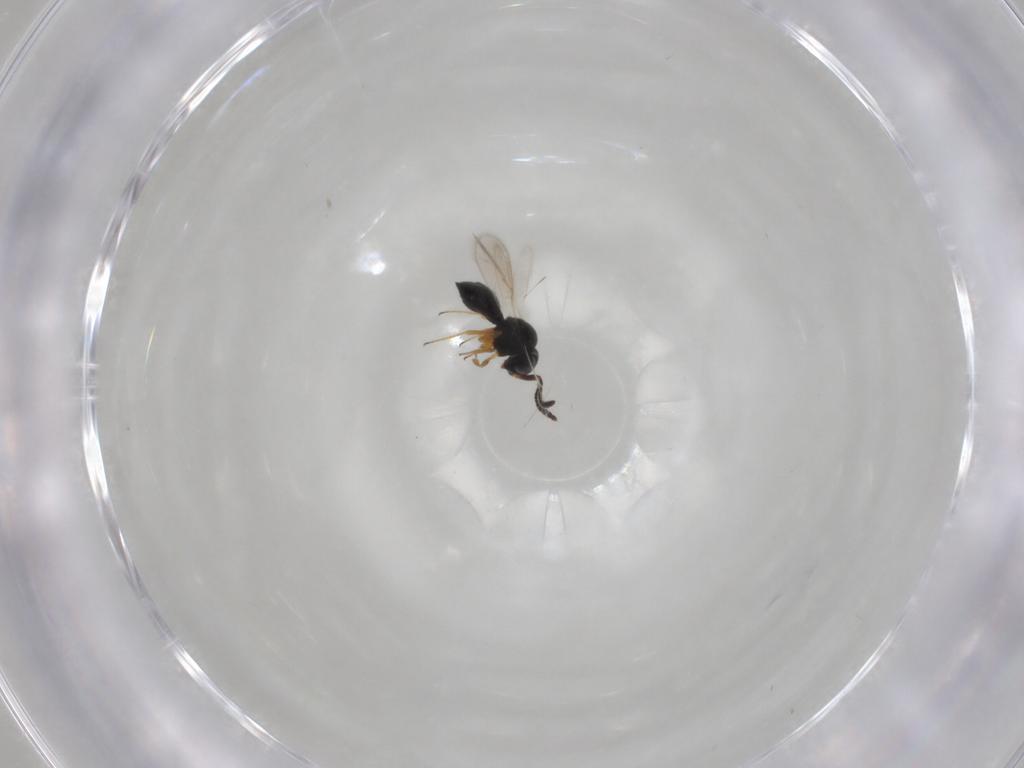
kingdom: Animalia
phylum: Arthropoda
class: Insecta
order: Hymenoptera
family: Scelionidae
